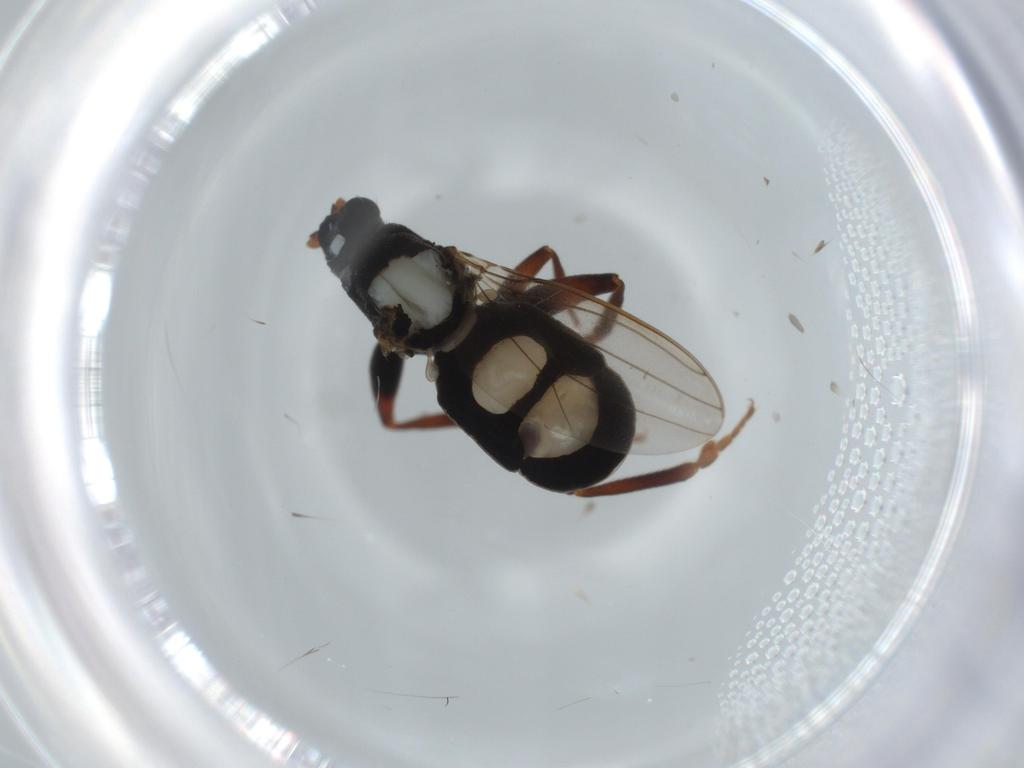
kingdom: Animalia
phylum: Arthropoda
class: Insecta
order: Diptera
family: Sphaeroceridae
